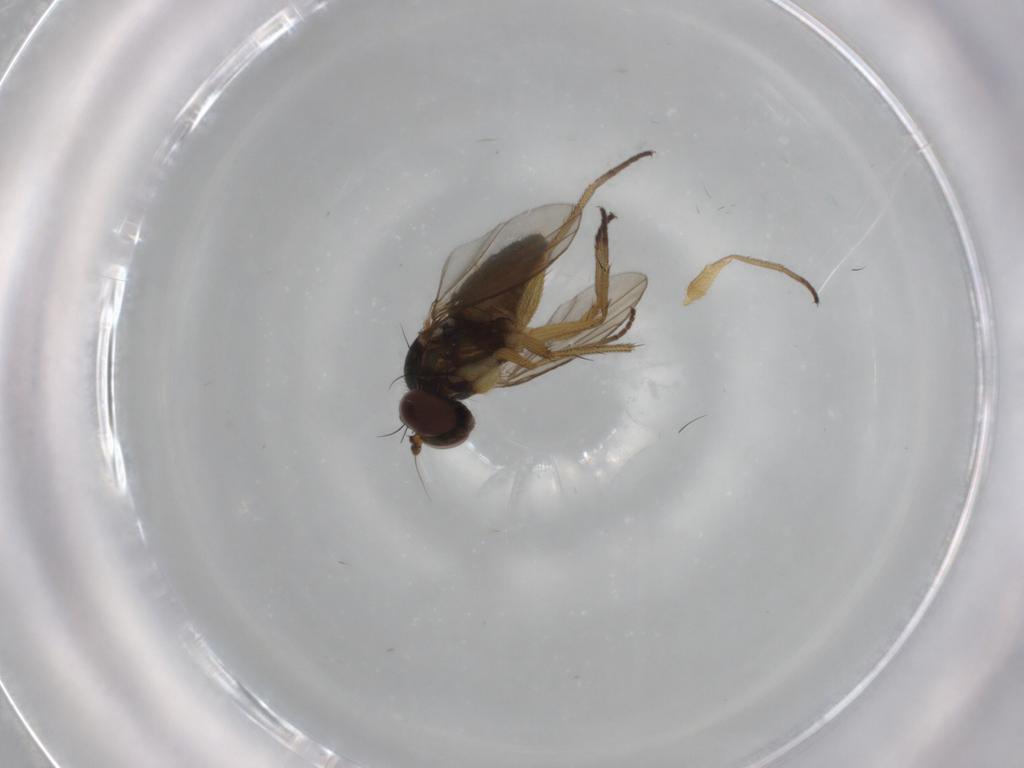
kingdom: Animalia
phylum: Arthropoda
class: Insecta
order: Diptera
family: Dolichopodidae
